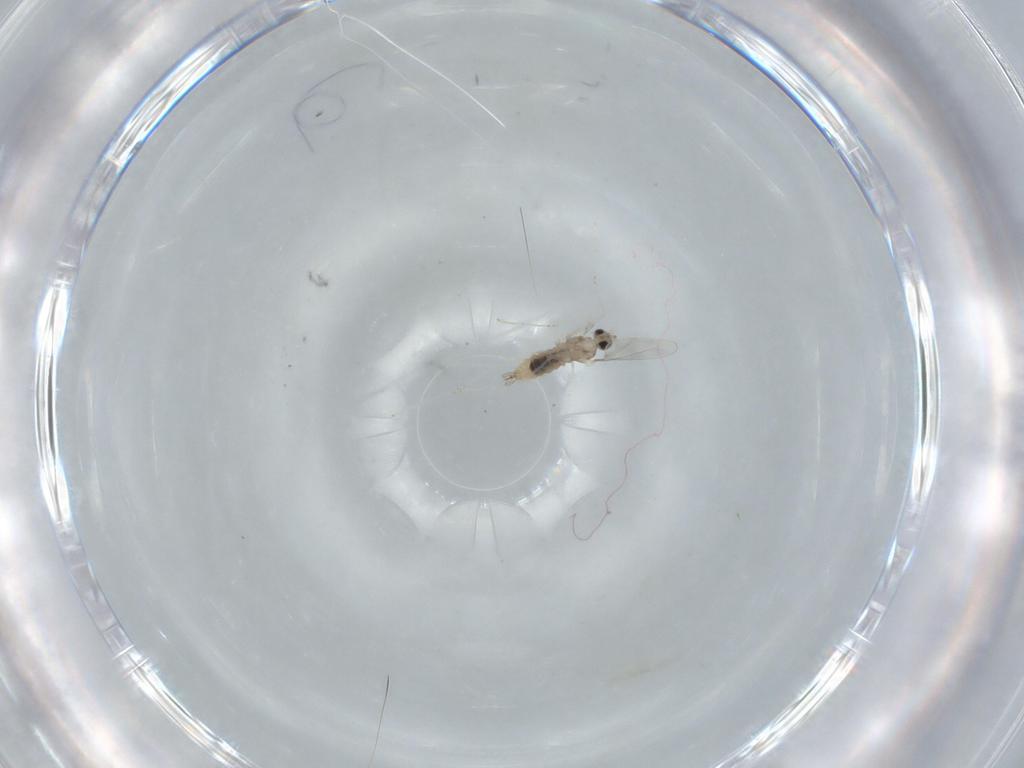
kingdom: Animalia
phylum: Arthropoda
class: Insecta
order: Diptera
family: Cecidomyiidae
